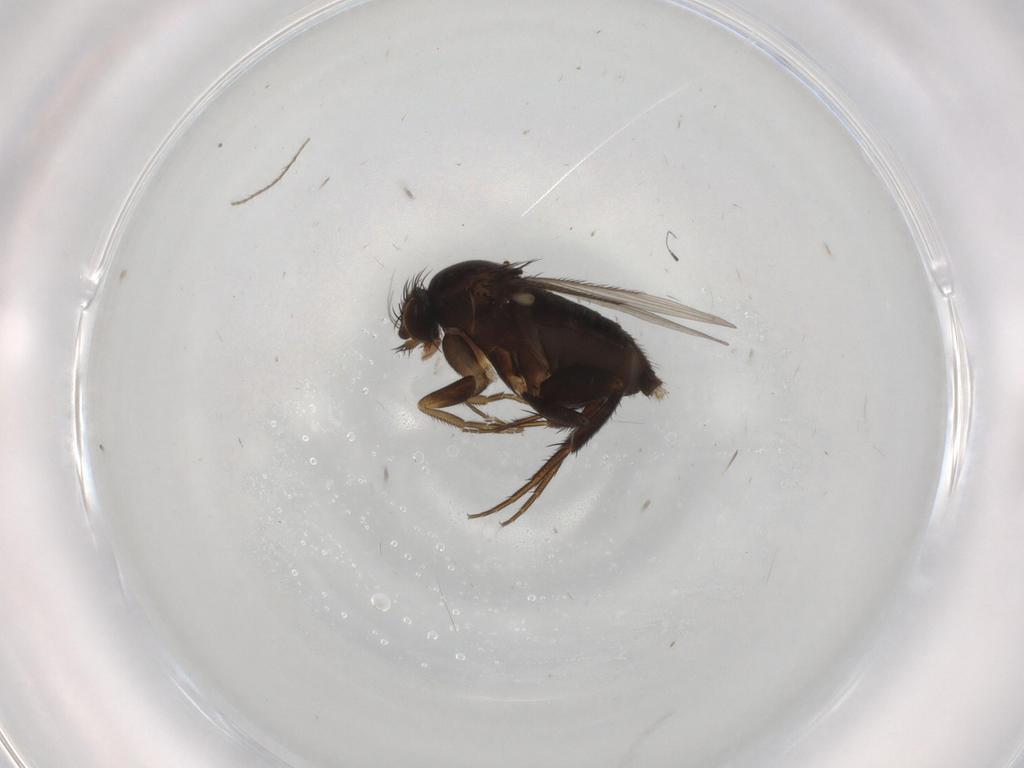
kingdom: Animalia
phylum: Arthropoda
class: Insecta
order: Diptera
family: Phoridae
